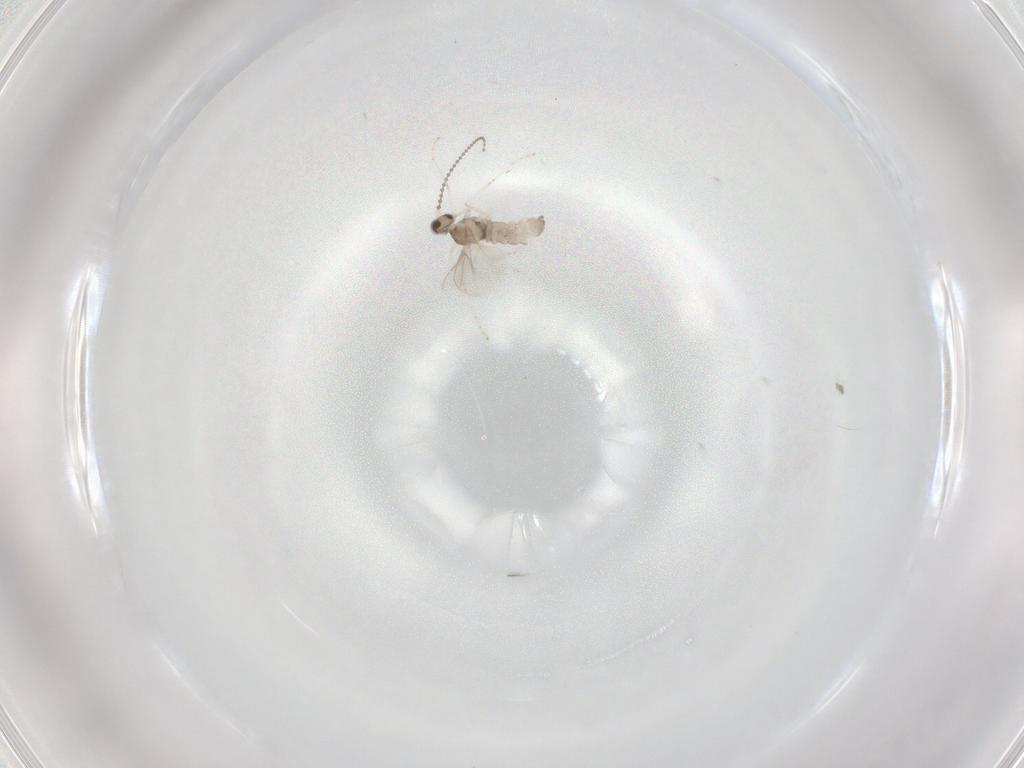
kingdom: Animalia
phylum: Arthropoda
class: Insecta
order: Diptera
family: Cecidomyiidae
